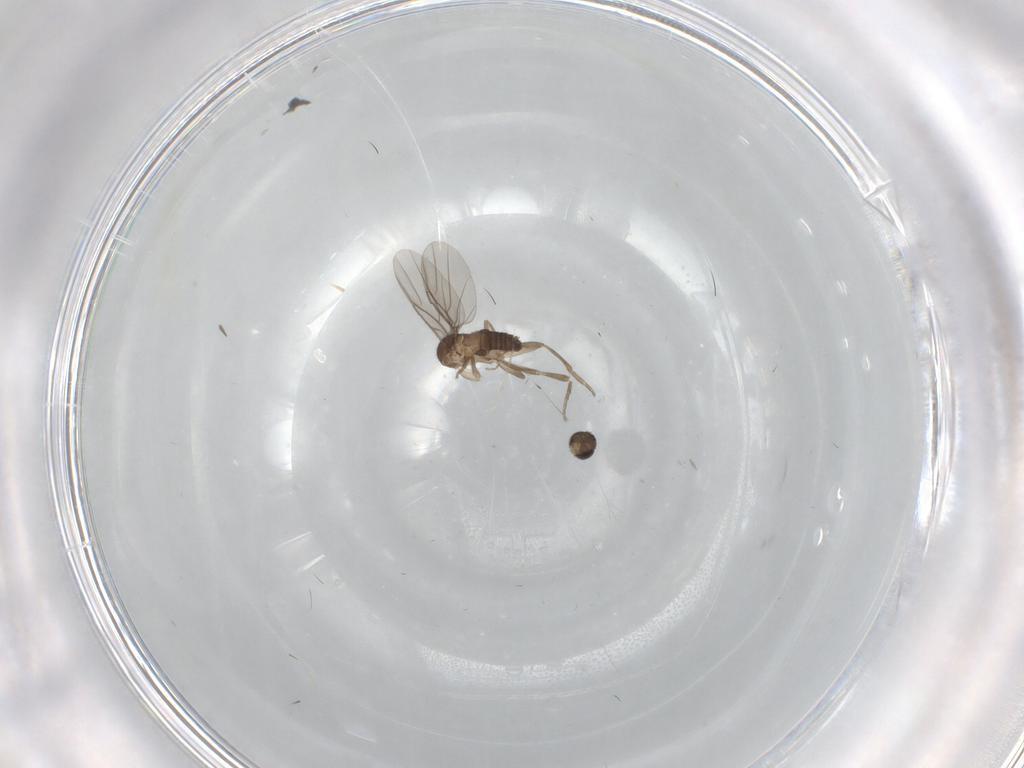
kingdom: Animalia
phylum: Arthropoda
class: Insecta
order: Diptera
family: Phoridae
